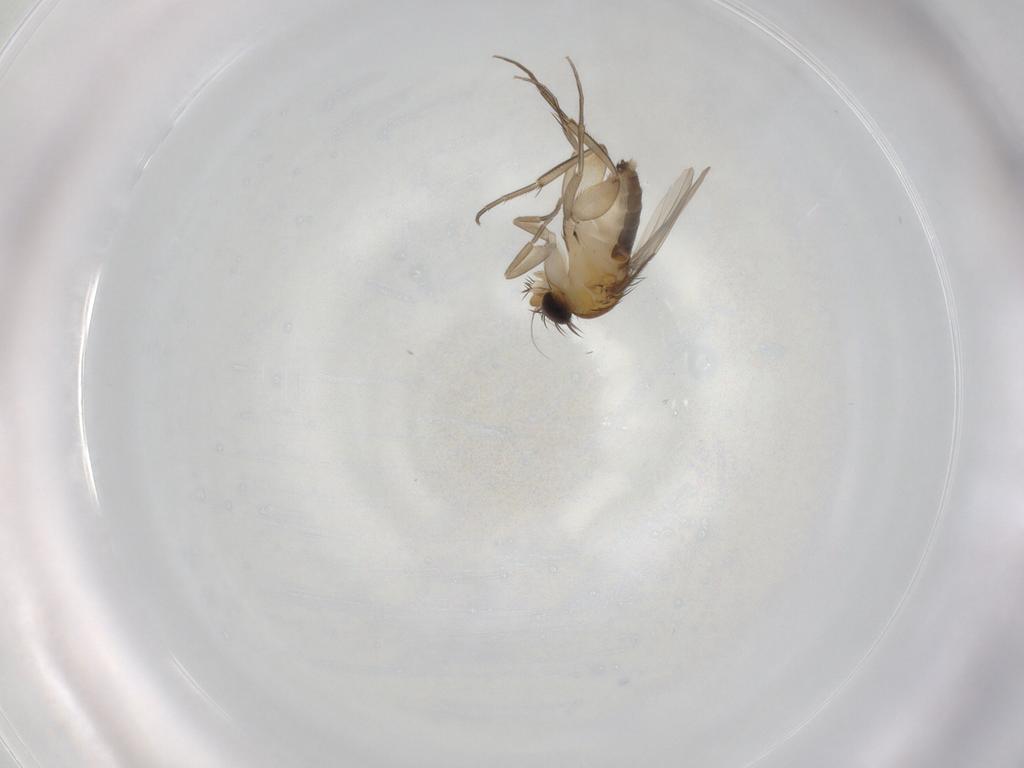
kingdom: Animalia
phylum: Arthropoda
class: Insecta
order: Diptera
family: Phoridae
